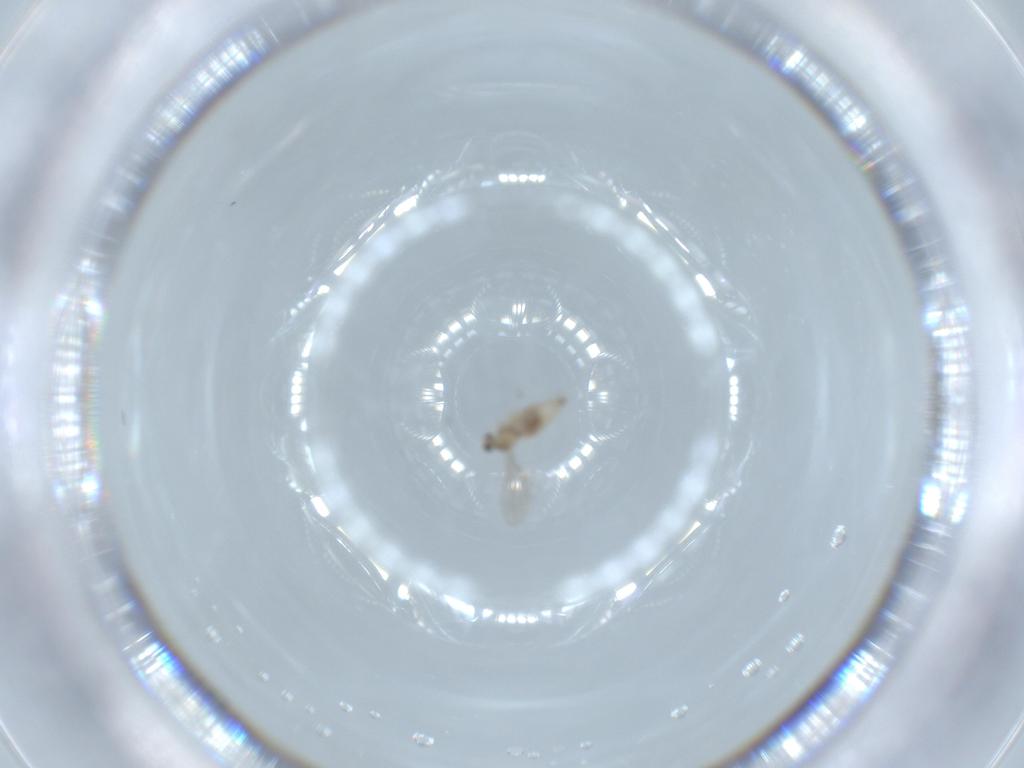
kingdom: Animalia
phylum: Arthropoda
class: Insecta
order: Diptera
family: Cecidomyiidae
